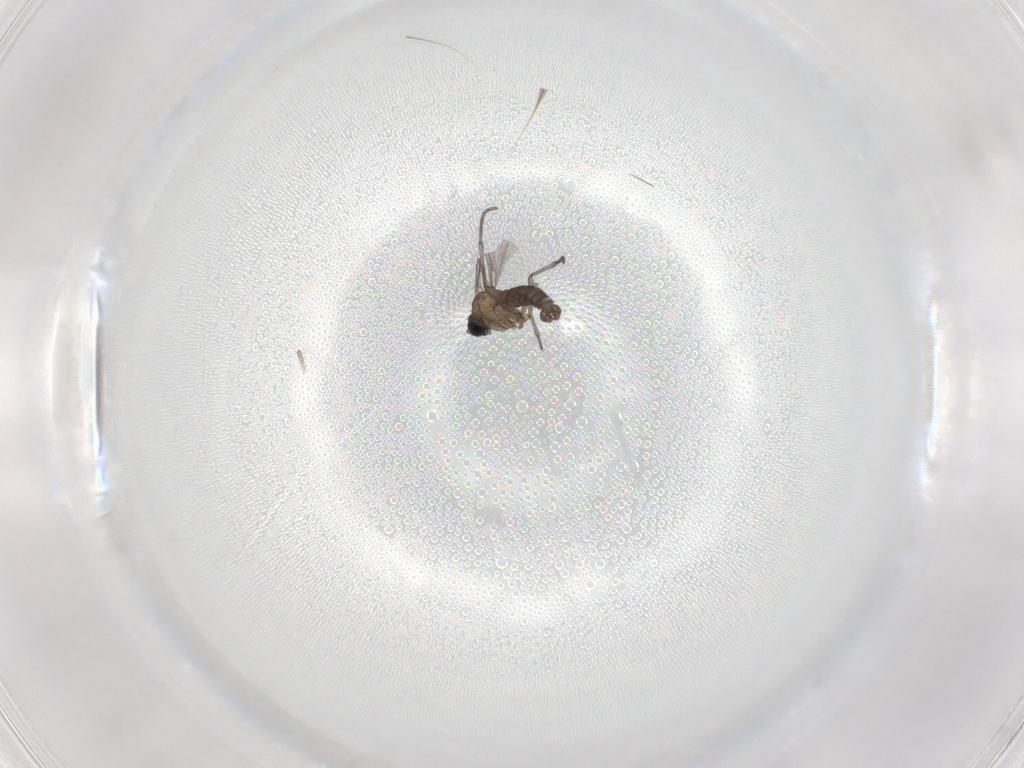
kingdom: Animalia
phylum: Arthropoda
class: Insecta
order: Diptera
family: Sciaridae
